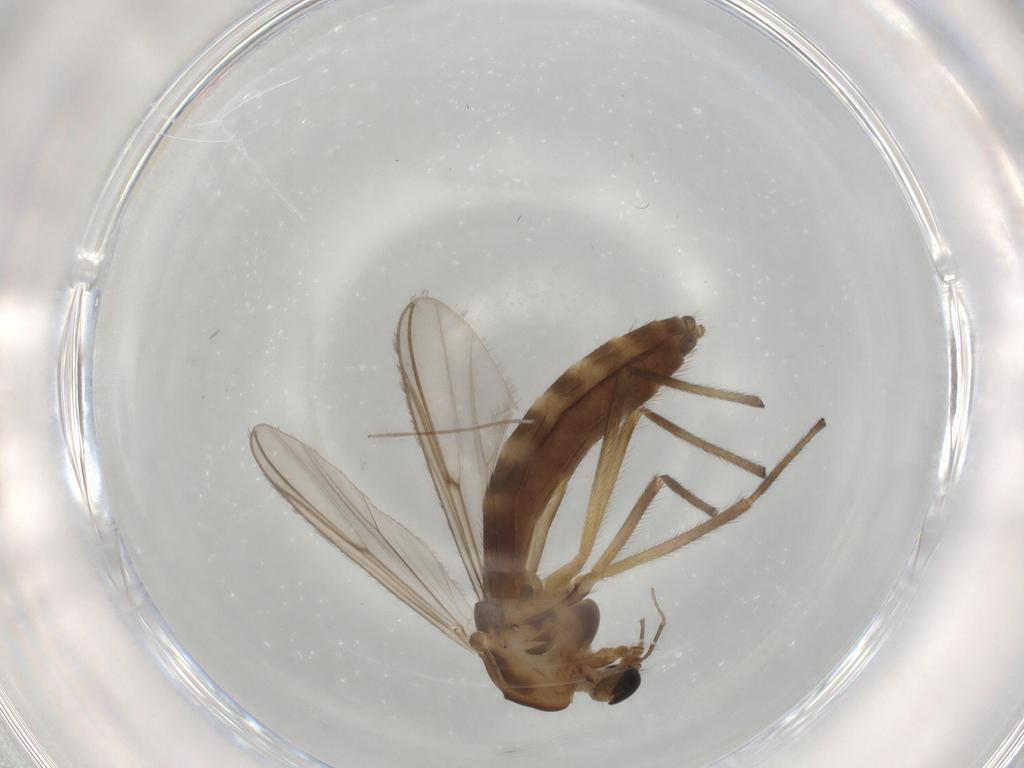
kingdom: Animalia
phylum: Arthropoda
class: Insecta
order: Diptera
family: Chironomidae
